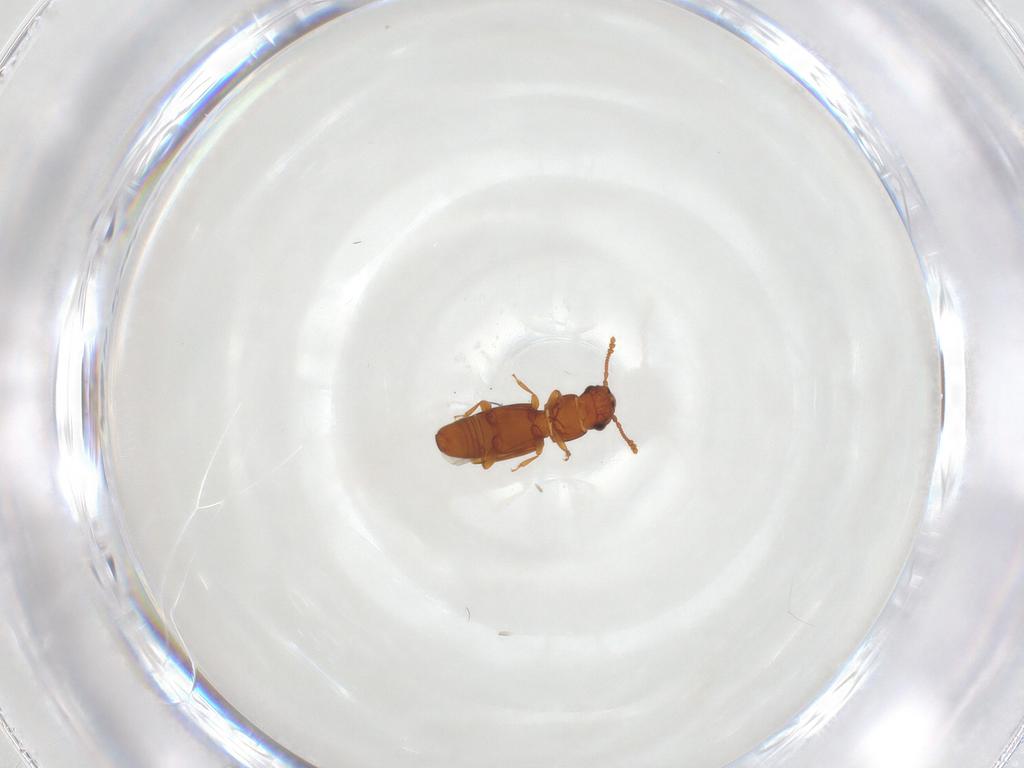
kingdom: Animalia
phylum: Arthropoda
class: Insecta
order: Coleoptera
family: Smicripidae
